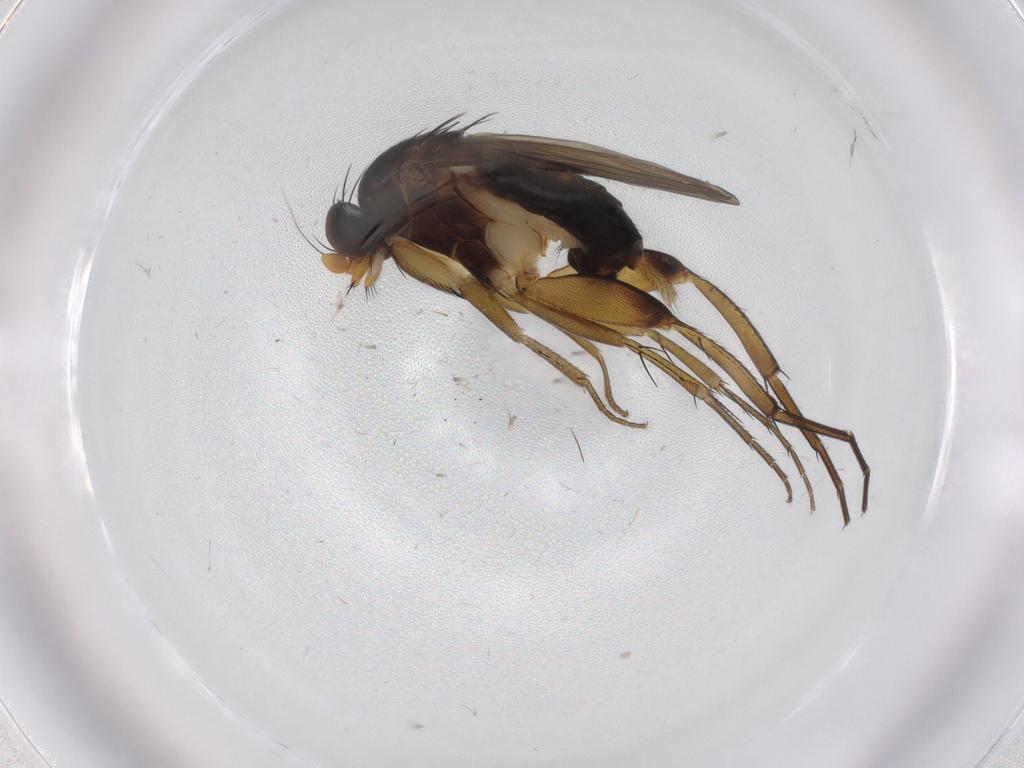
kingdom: Animalia
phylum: Arthropoda
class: Insecta
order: Diptera
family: Phoridae
